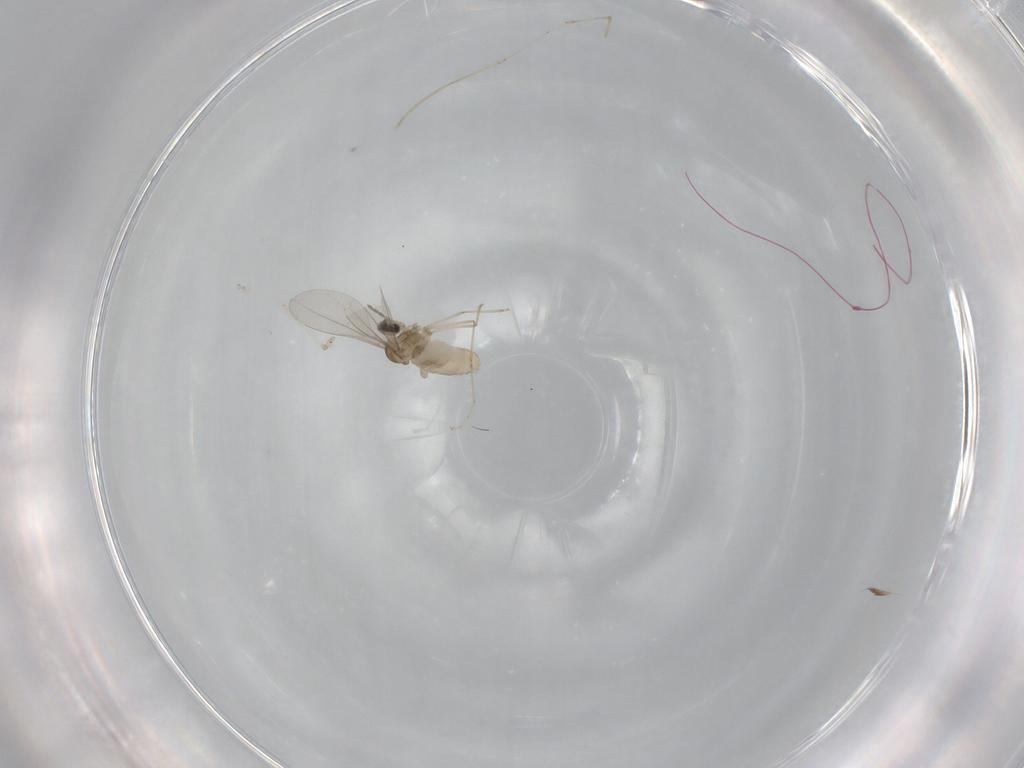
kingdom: Animalia
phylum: Arthropoda
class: Insecta
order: Diptera
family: Cecidomyiidae
